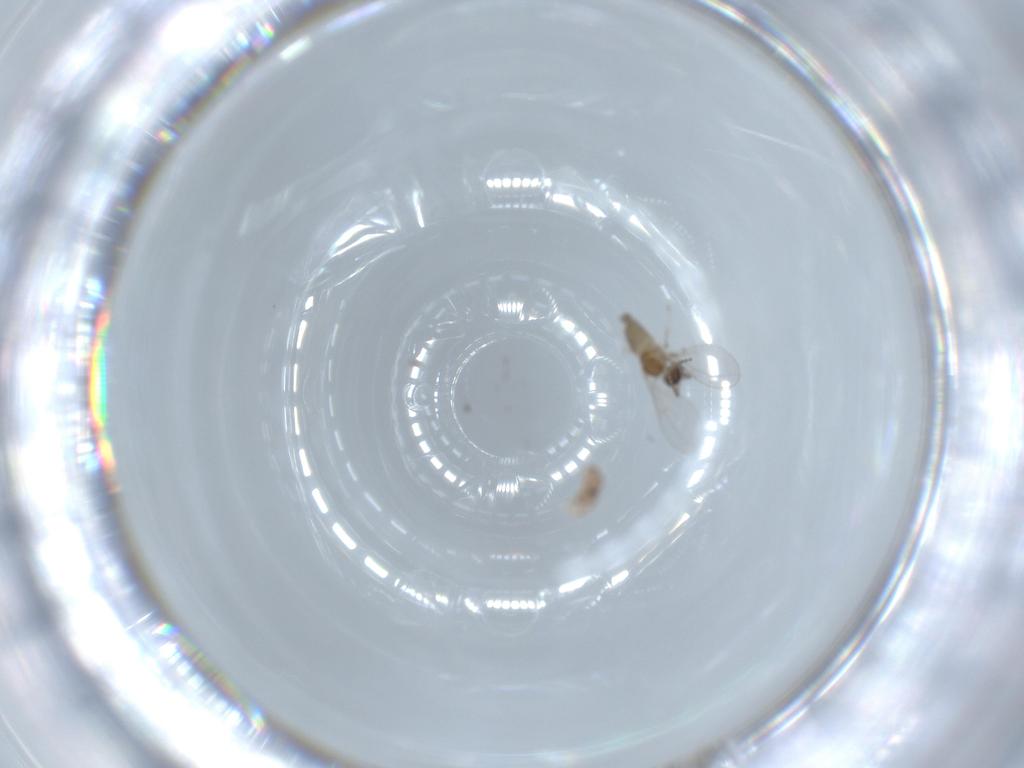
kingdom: Animalia
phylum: Arthropoda
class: Insecta
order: Diptera
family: Cecidomyiidae
